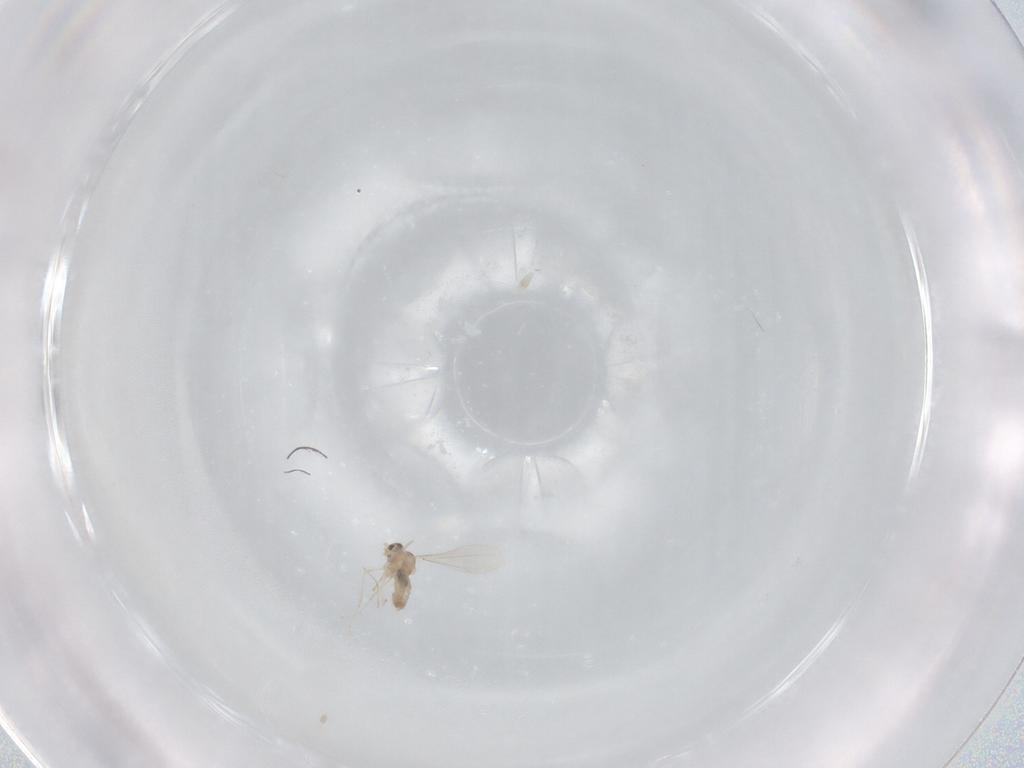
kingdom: Animalia
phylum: Arthropoda
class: Insecta
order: Diptera
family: Cecidomyiidae
